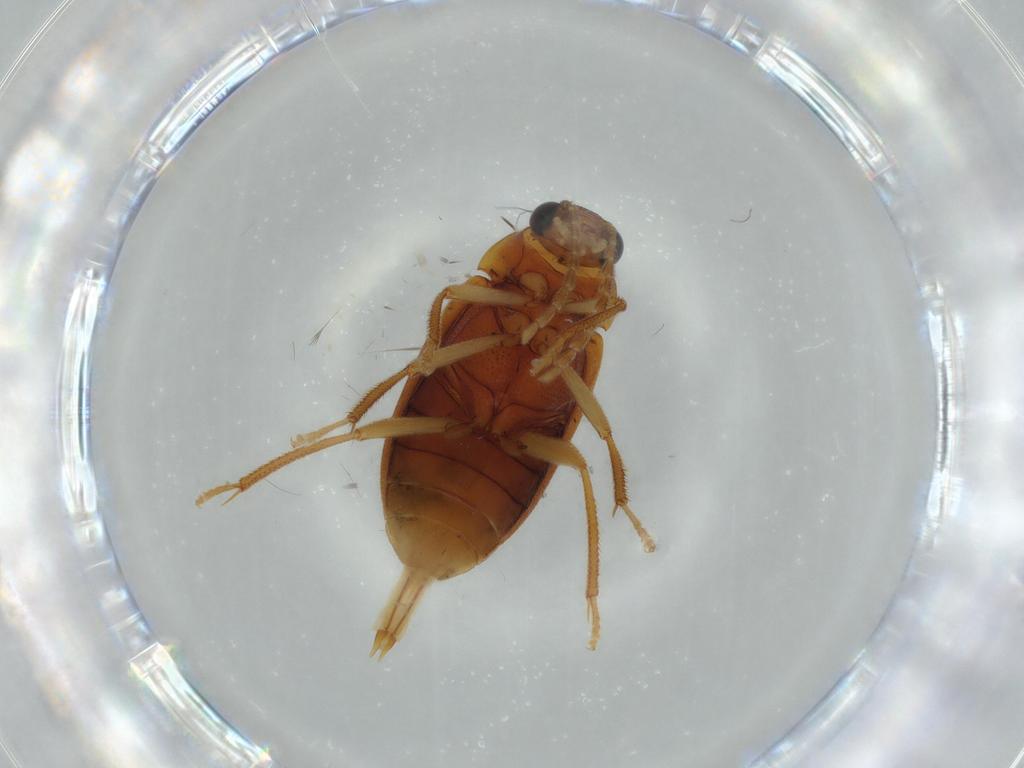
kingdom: Animalia
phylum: Arthropoda
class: Insecta
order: Coleoptera
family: Ptilodactylidae
